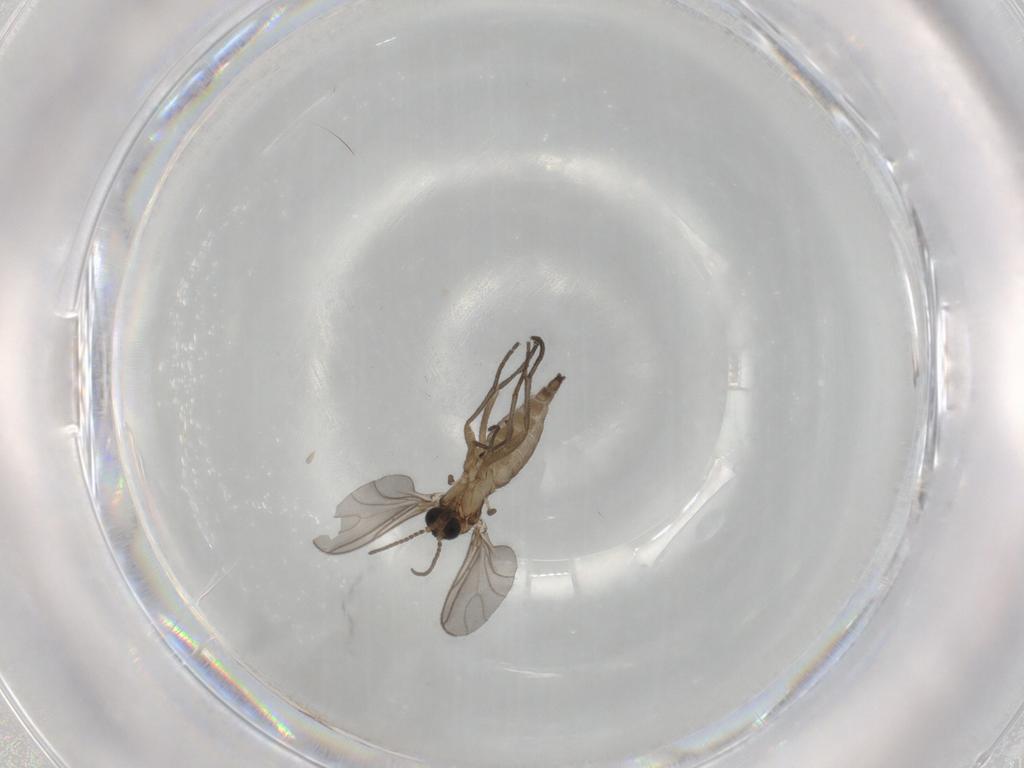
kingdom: Animalia
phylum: Arthropoda
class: Insecta
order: Diptera
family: Sciaridae
